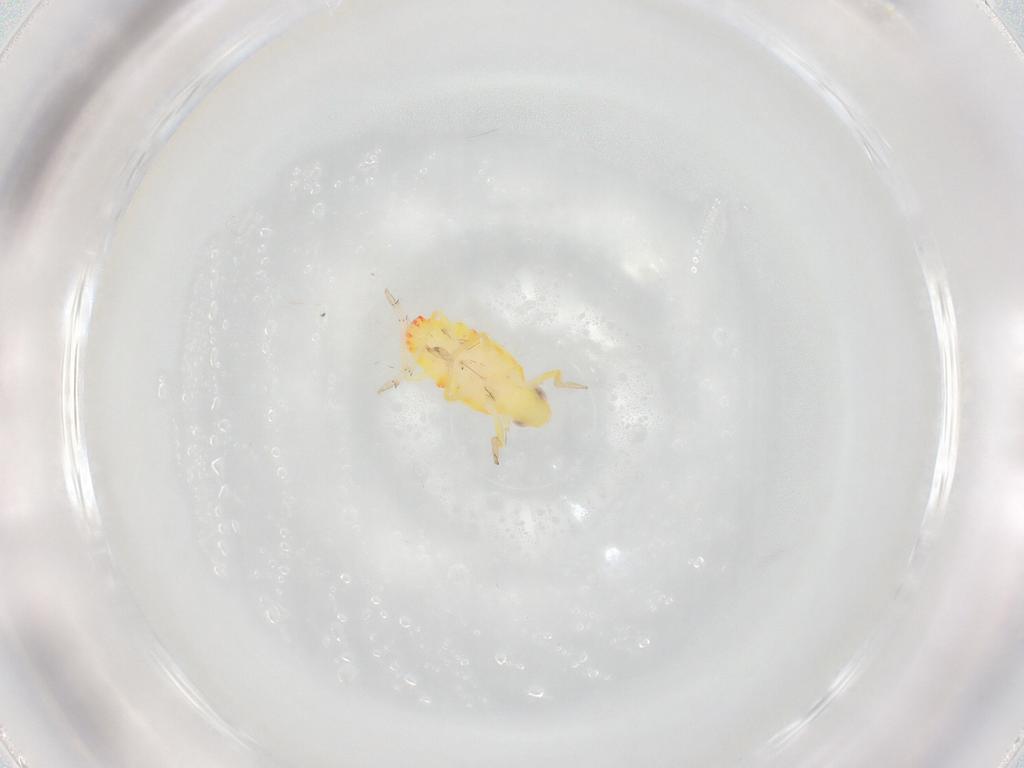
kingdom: Animalia
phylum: Arthropoda
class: Insecta
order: Hemiptera
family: Tropiduchidae
